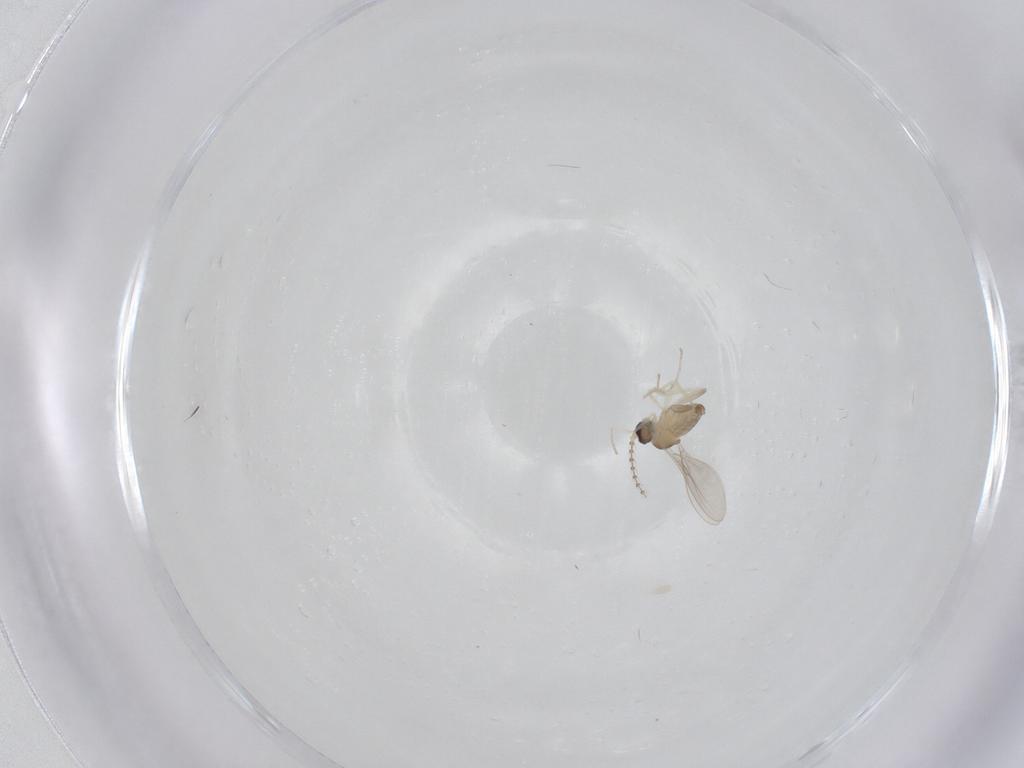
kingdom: Animalia
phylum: Arthropoda
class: Insecta
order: Diptera
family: Cecidomyiidae
